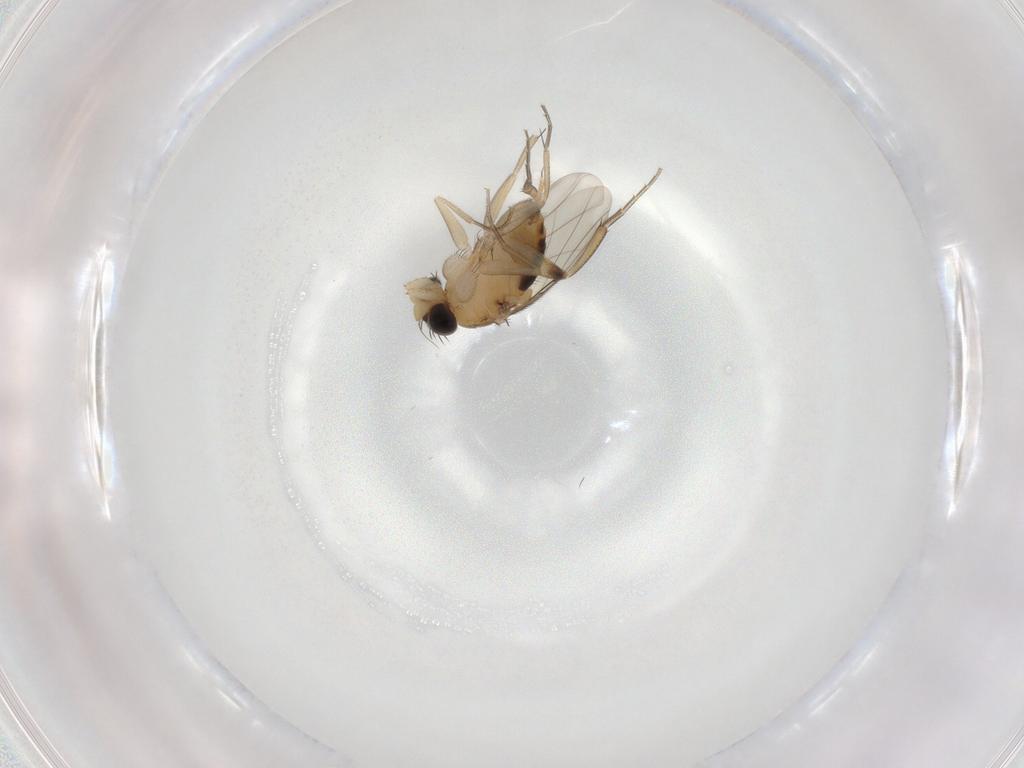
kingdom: Animalia
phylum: Arthropoda
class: Insecta
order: Diptera
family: Phoridae
